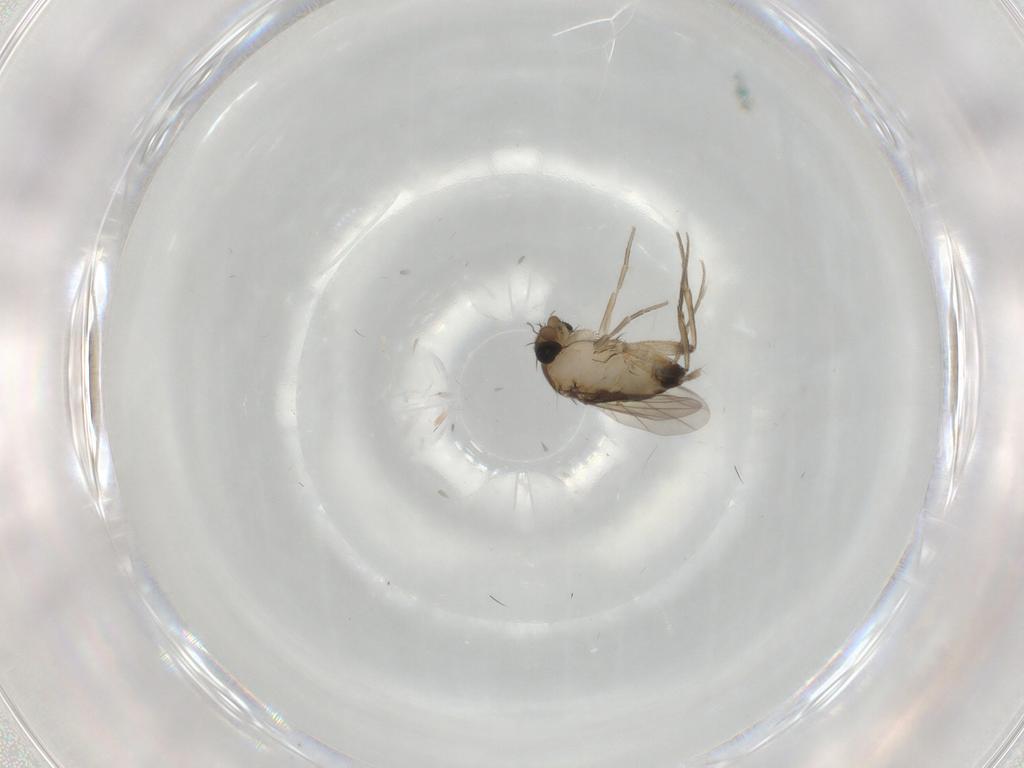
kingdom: Animalia
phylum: Arthropoda
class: Insecta
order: Diptera
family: Phoridae
